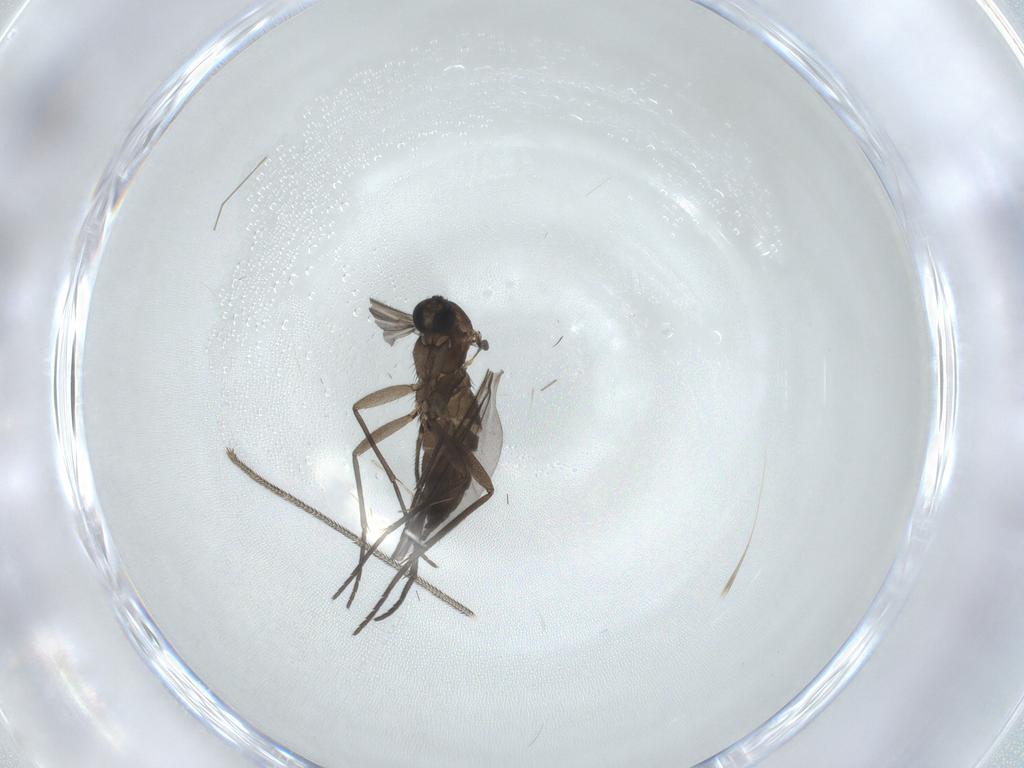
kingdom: Animalia
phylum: Arthropoda
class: Insecta
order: Diptera
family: Sciaridae
